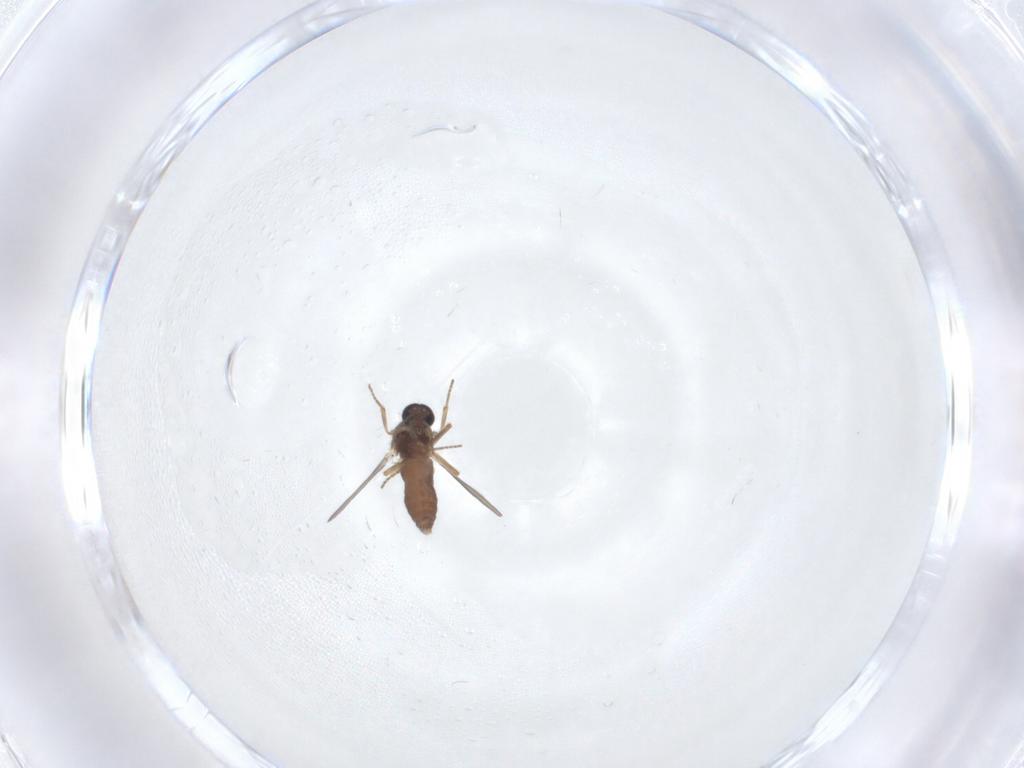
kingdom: Animalia
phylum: Arthropoda
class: Insecta
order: Diptera
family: Ceratopogonidae
